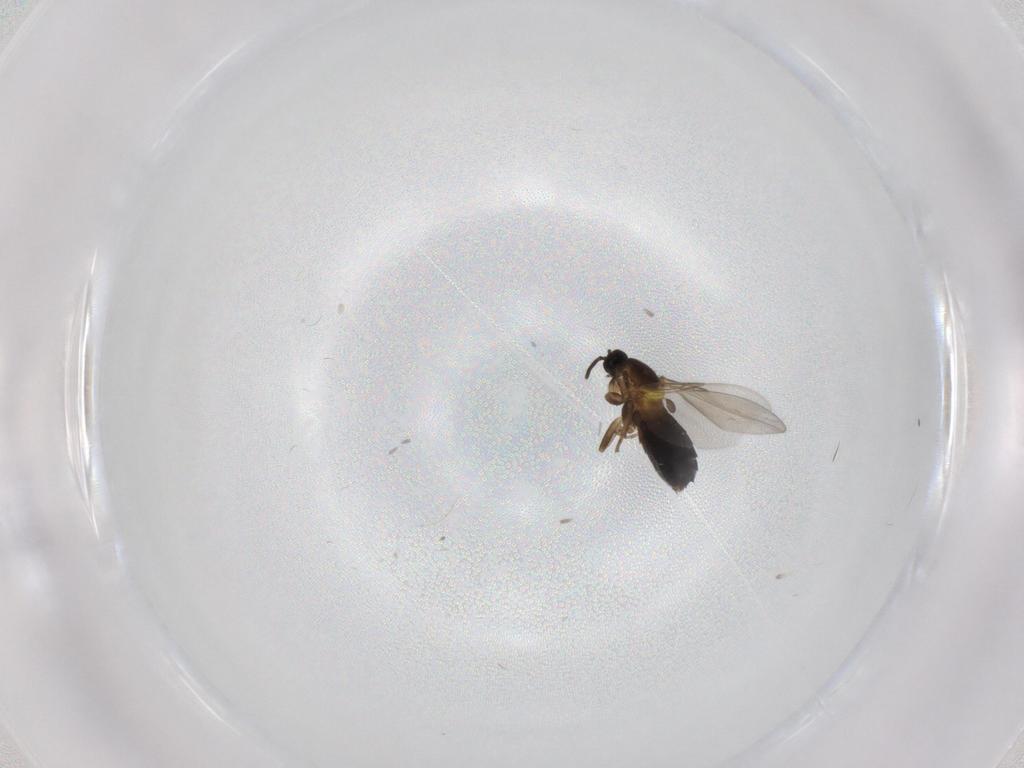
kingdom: Animalia
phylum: Arthropoda
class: Insecta
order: Diptera
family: Scatopsidae
